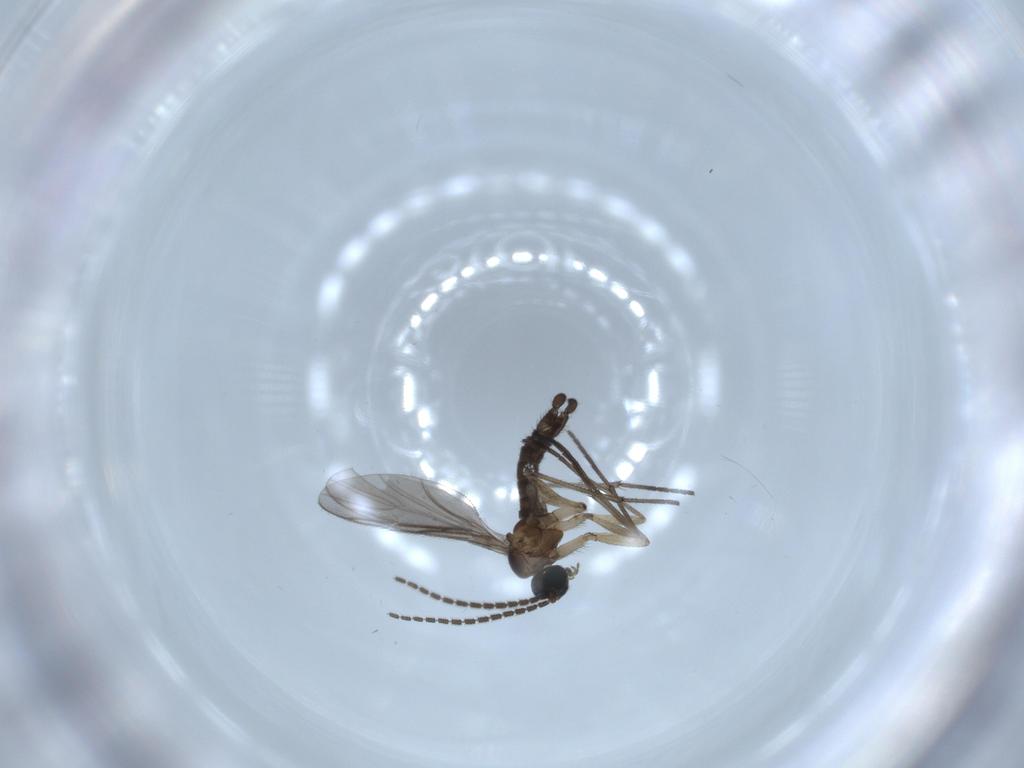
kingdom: Animalia
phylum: Arthropoda
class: Insecta
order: Diptera
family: Sciaridae
